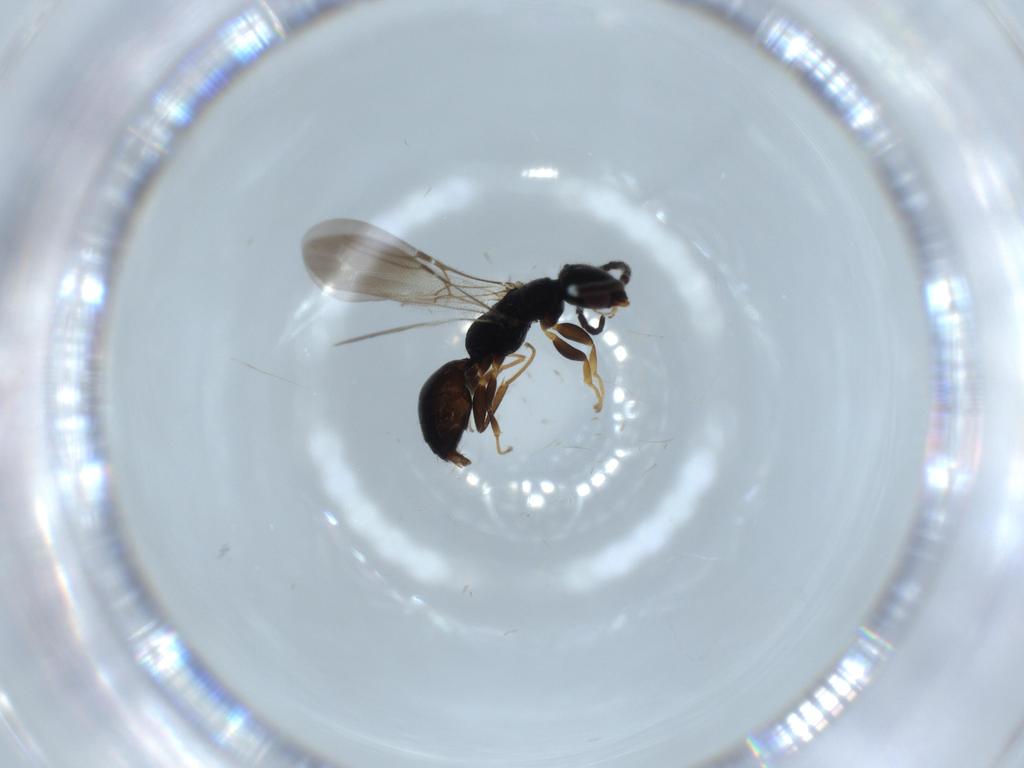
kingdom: Animalia
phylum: Arthropoda
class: Insecta
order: Hymenoptera
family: Bethylidae
